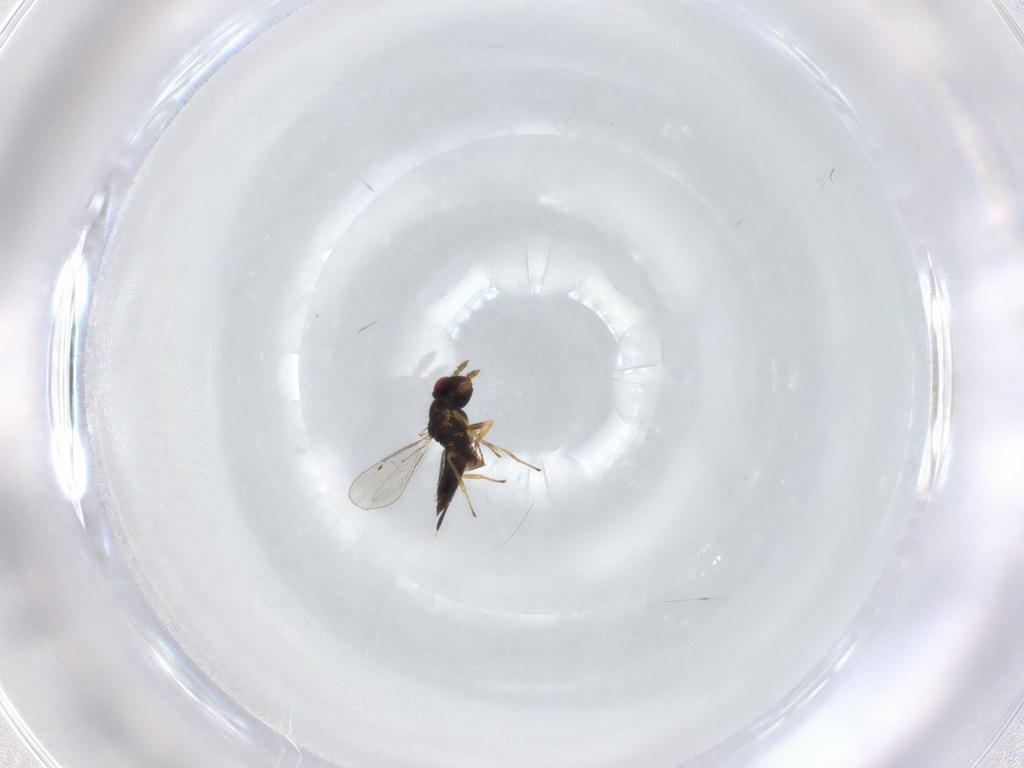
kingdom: Animalia
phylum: Arthropoda
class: Insecta
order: Hymenoptera
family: Eulophidae
